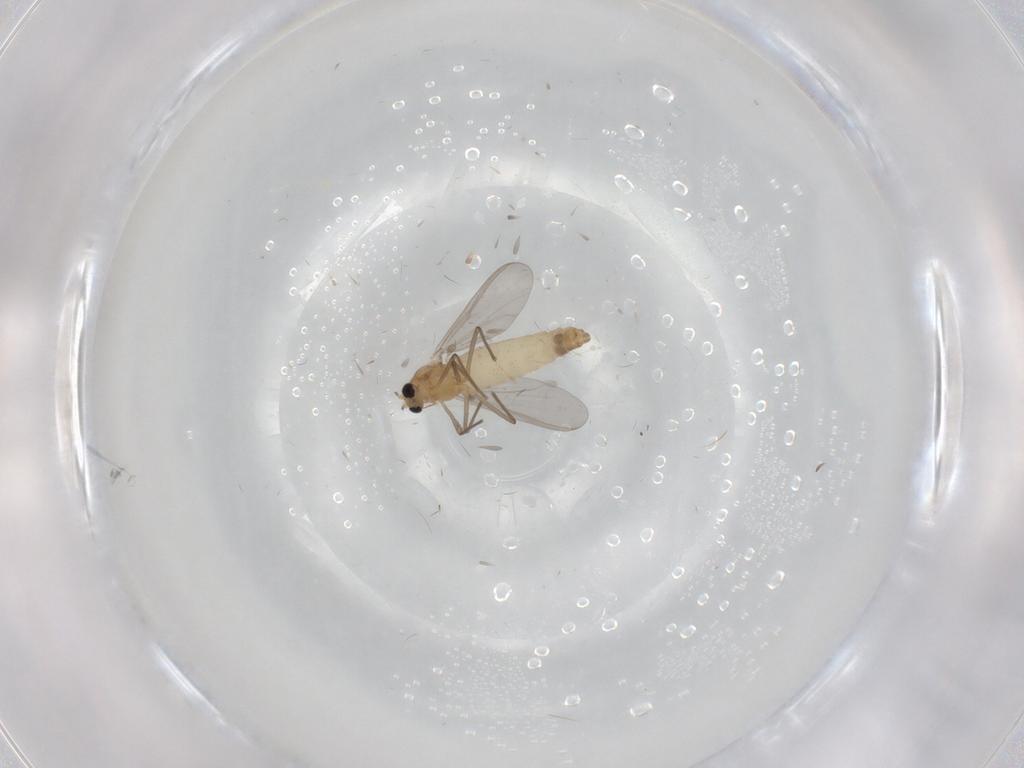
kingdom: Animalia
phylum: Arthropoda
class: Insecta
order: Diptera
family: Chironomidae
